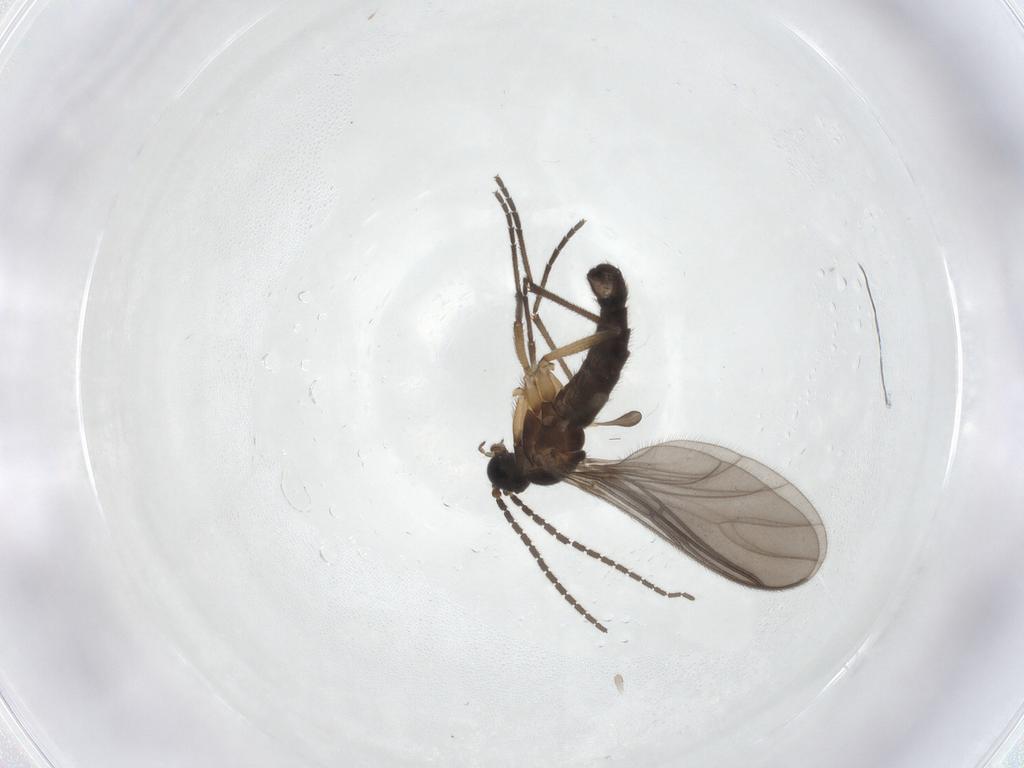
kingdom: Animalia
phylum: Arthropoda
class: Insecta
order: Diptera
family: Sciaridae
